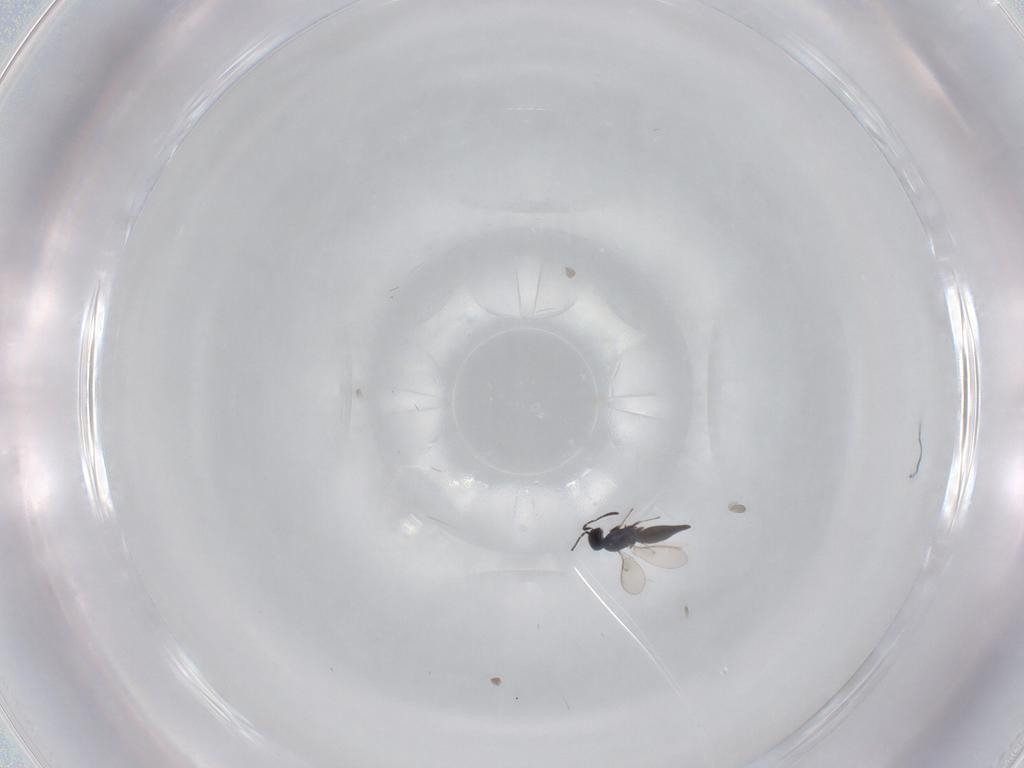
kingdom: Animalia
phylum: Arthropoda
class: Insecta
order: Hymenoptera
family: Scelionidae
